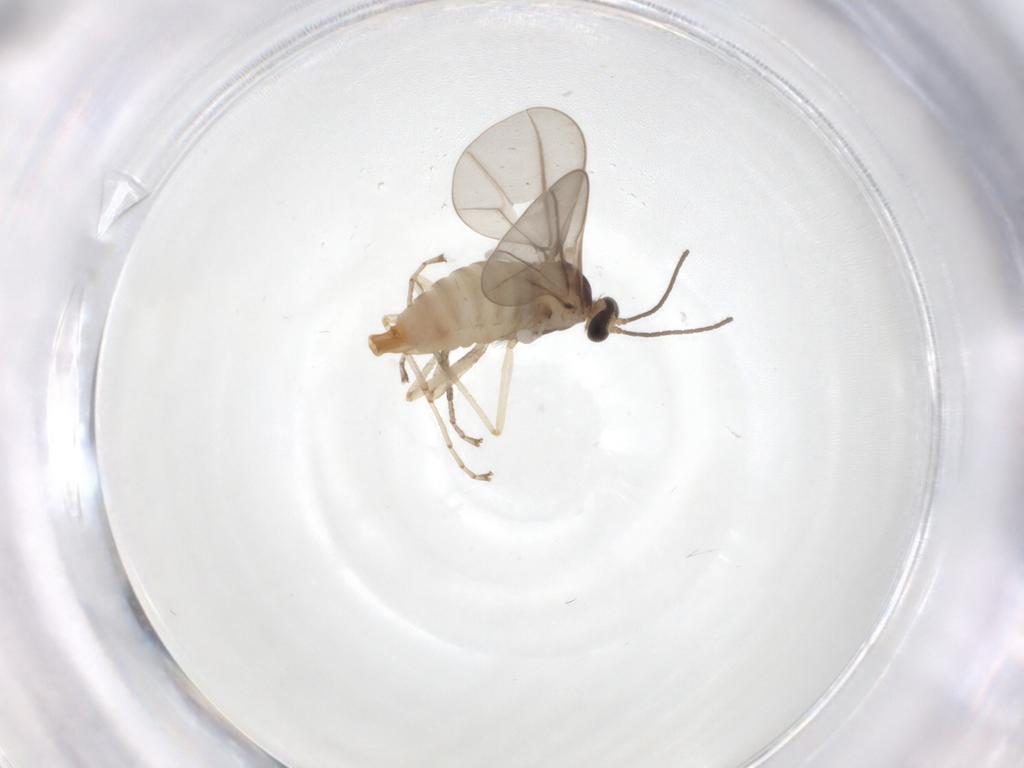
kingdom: Animalia
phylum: Arthropoda
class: Insecta
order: Diptera
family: Cecidomyiidae
